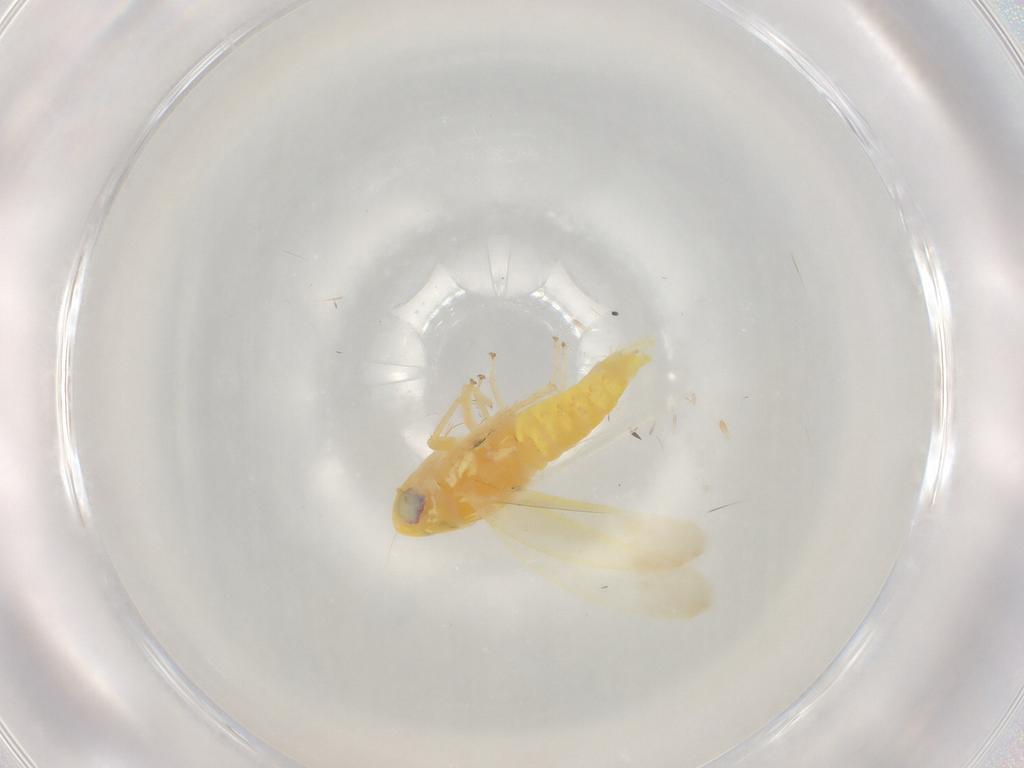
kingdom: Animalia
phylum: Arthropoda
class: Insecta
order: Hemiptera
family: Cicadellidae
